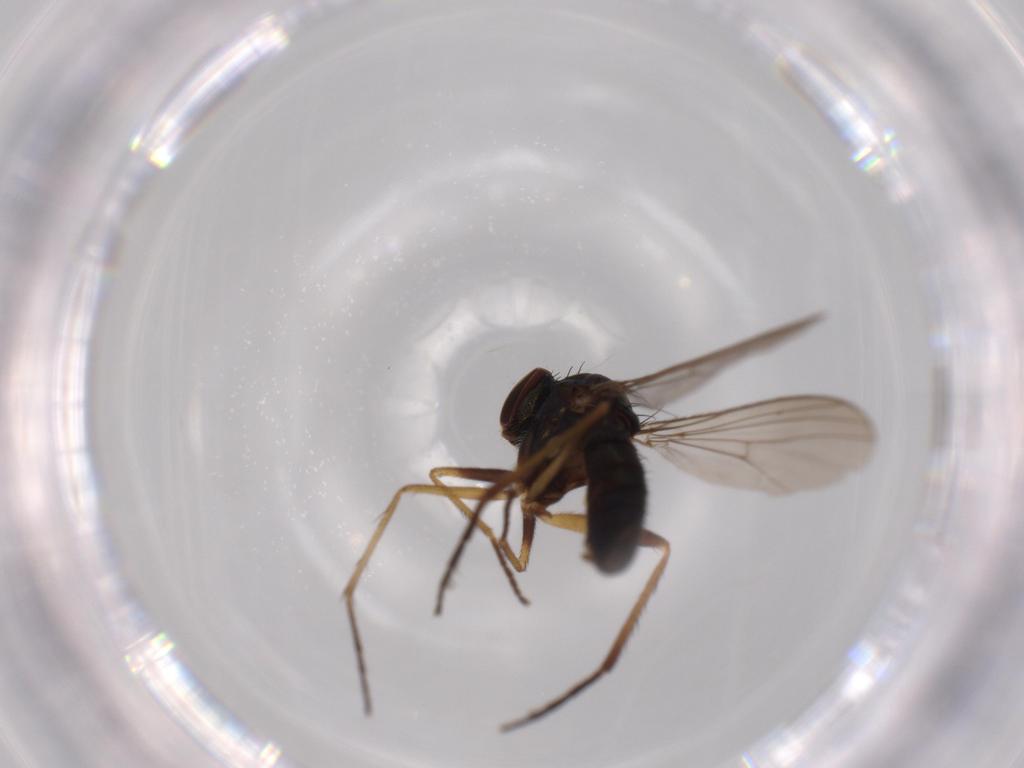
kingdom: Animalia
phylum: Arthropoda
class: Insecta
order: Diptera
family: Dolichopodidae
